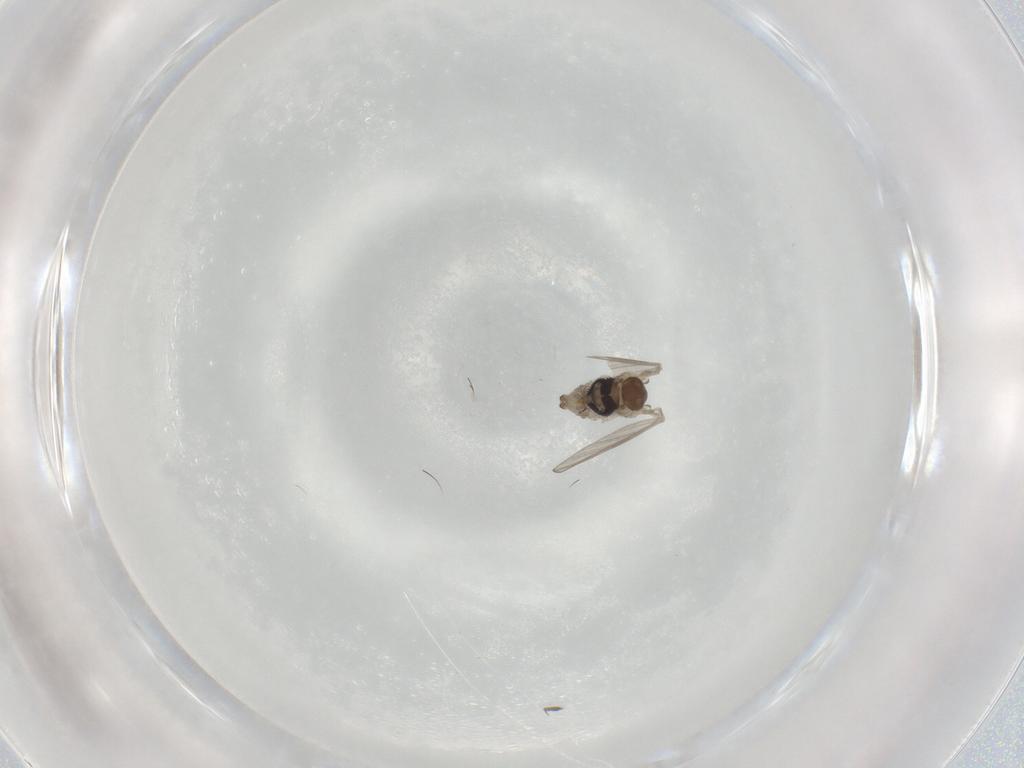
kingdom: Animalia
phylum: Arthropoda
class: Insecta
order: Diptera
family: Psychodidae
